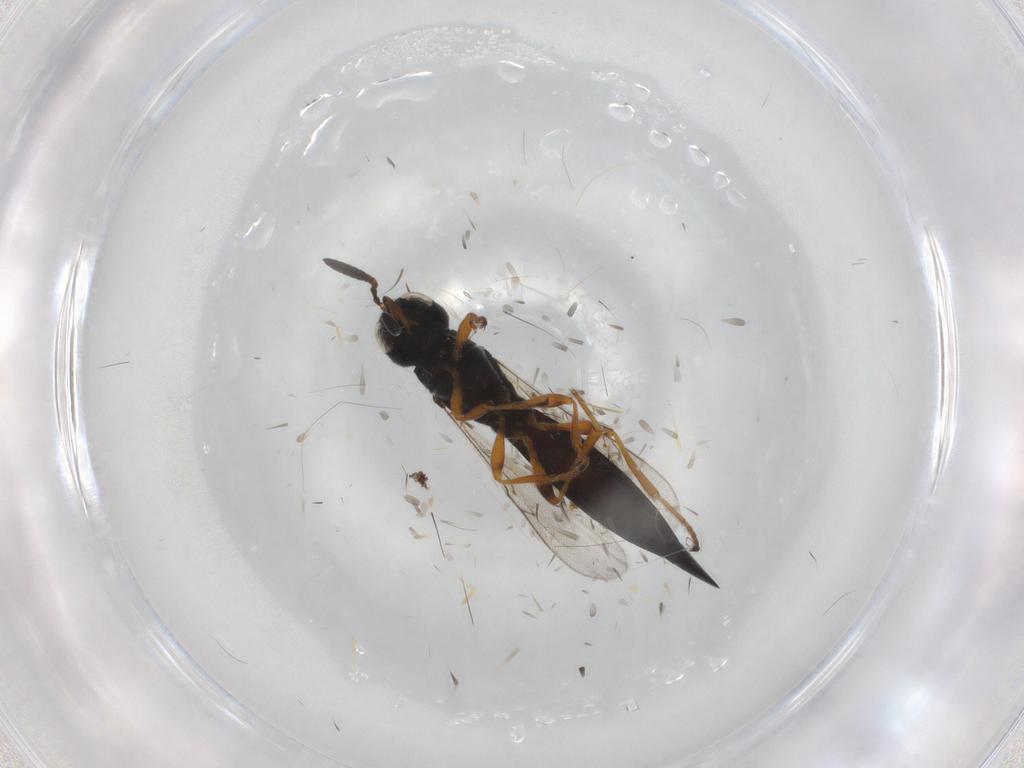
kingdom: Animalia
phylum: Arthropoda
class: Insecta
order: Hymenoptera
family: Scelionidae
